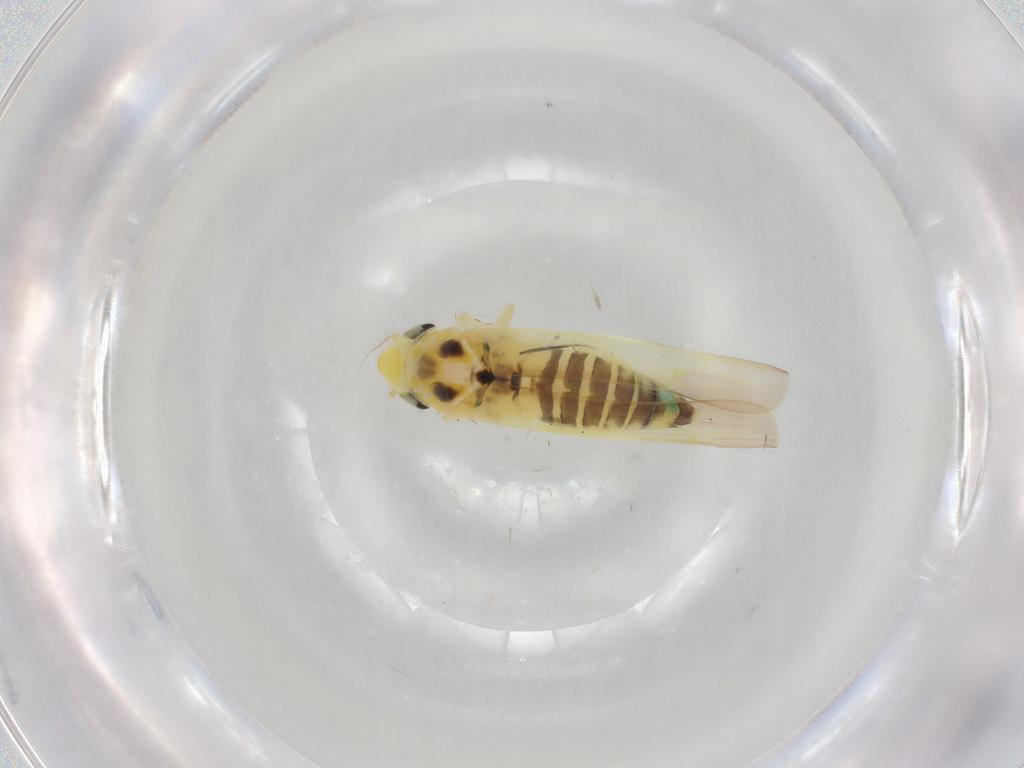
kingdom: Animalia
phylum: Arthropoda
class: Insecta
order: Hemiptera
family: Cicadellidae
